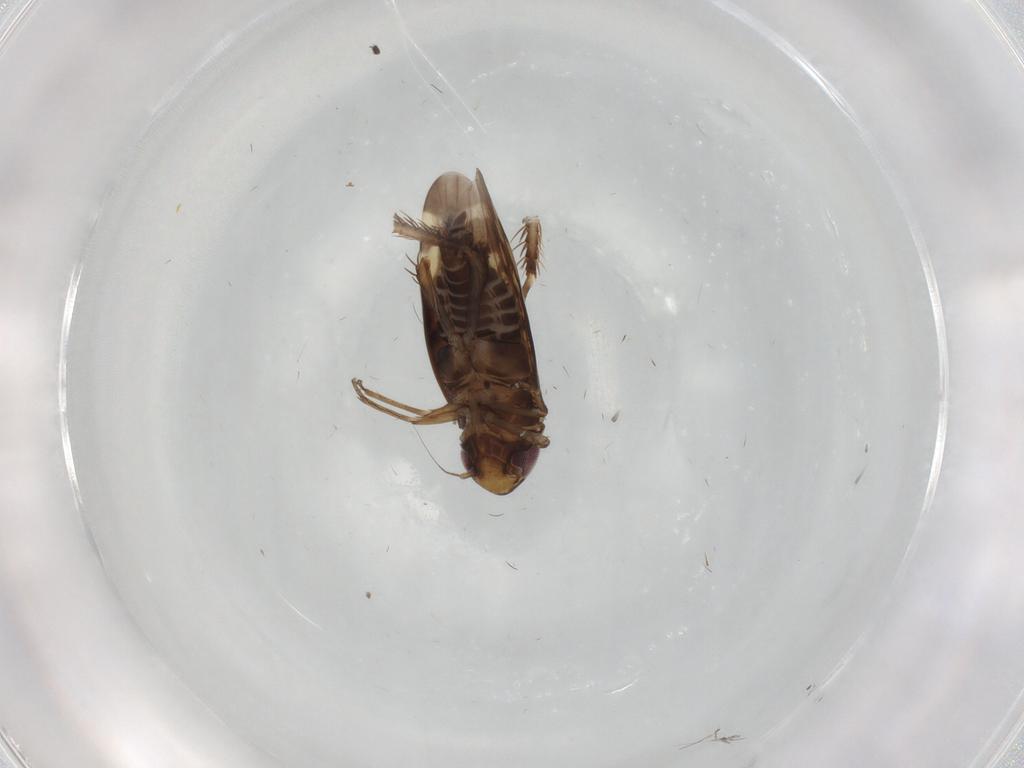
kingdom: Animalia
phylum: Arthropoda
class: Insecta
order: Hemiptera
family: Cicadellidae
